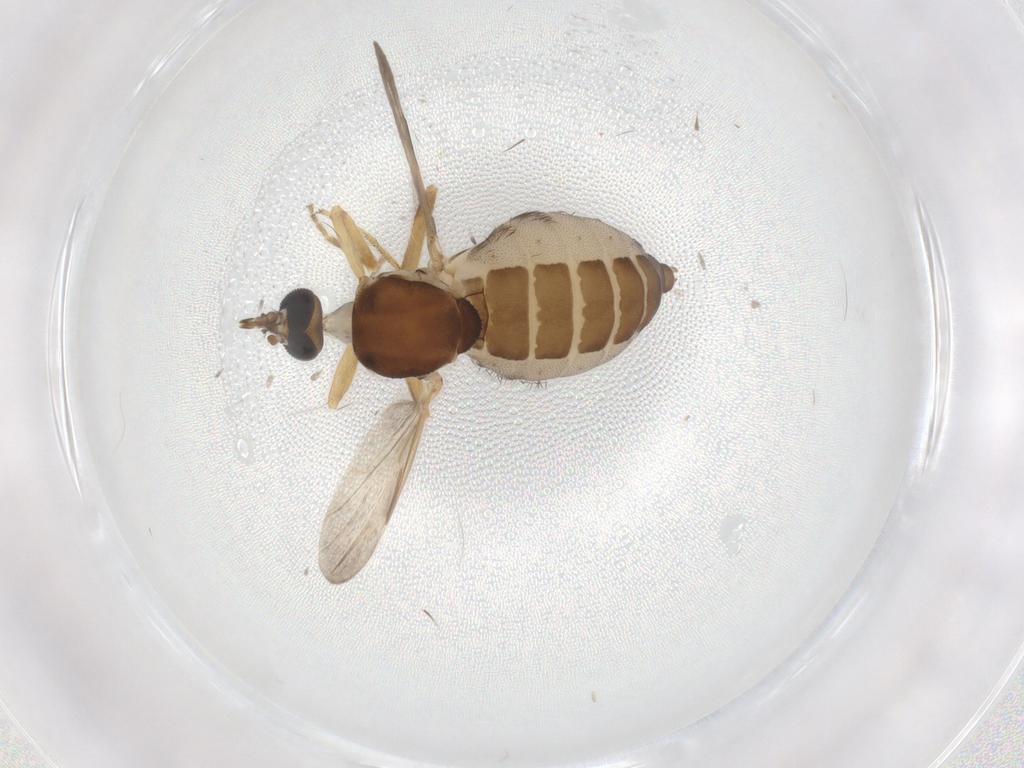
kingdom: Animalia
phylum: Arthropoda
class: Insecta
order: Diptera
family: Ceratopogonidae
